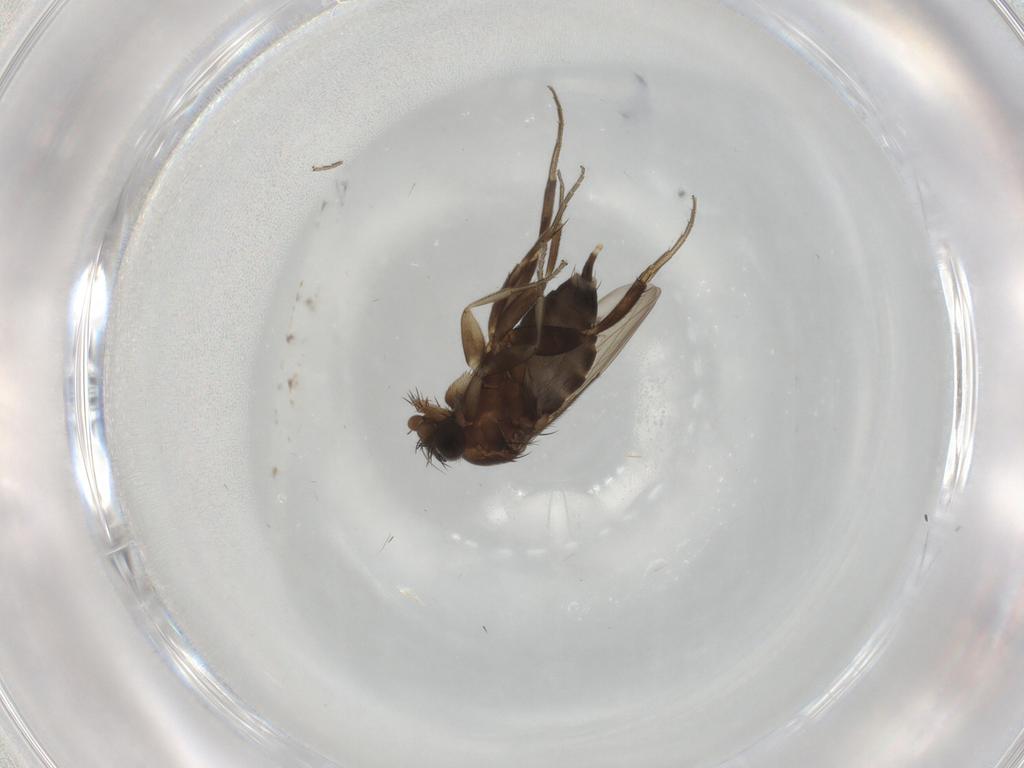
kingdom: Animalia
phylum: Arthropoda
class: Insecta
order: Diptera
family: Phoridae
